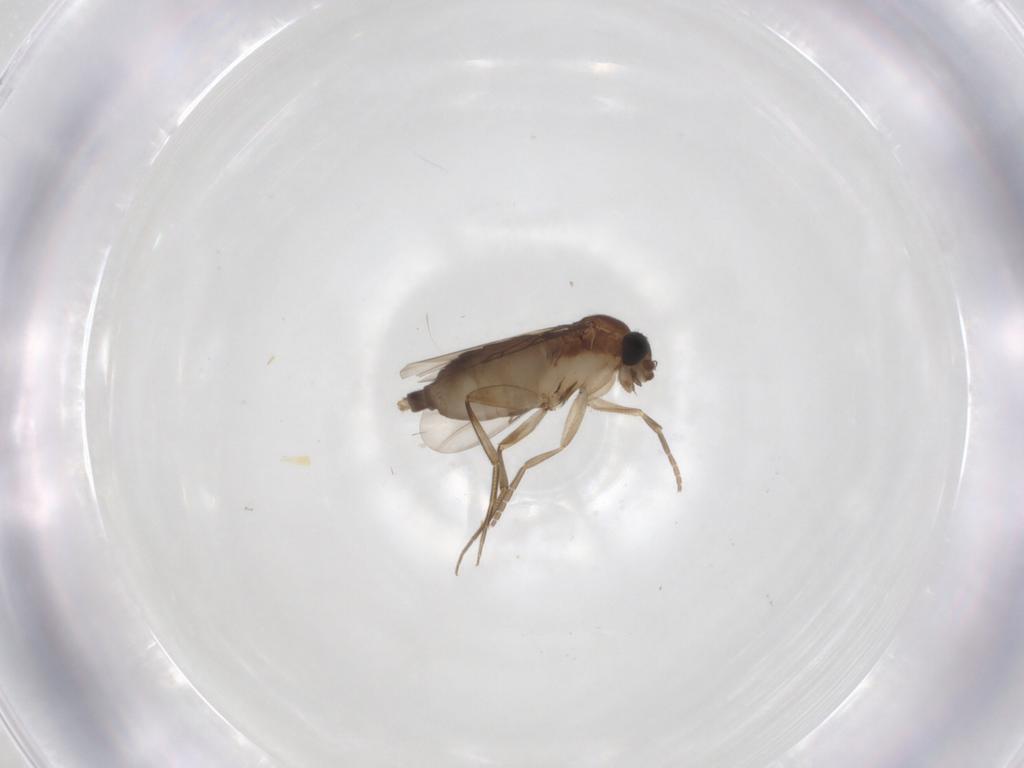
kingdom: Animalia
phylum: Arthropoda
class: Insecta
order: Diptera
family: Phoridae
